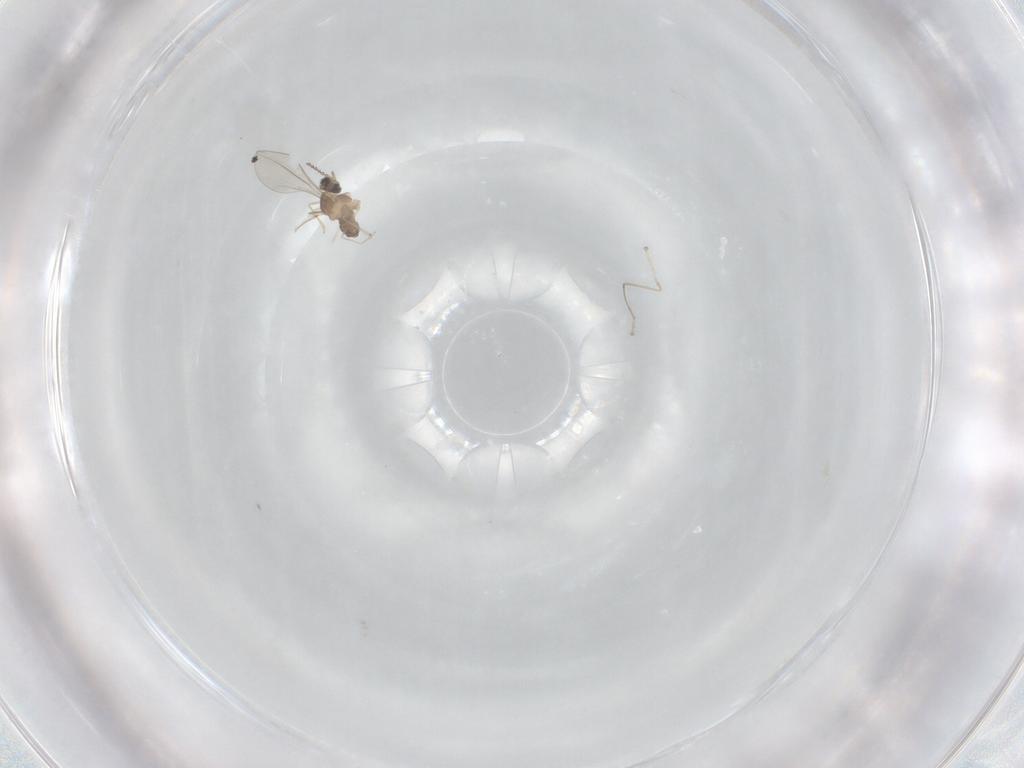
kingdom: Animalia
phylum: Arthropoda
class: Insecta
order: Diptera
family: Cecidomyiidae
